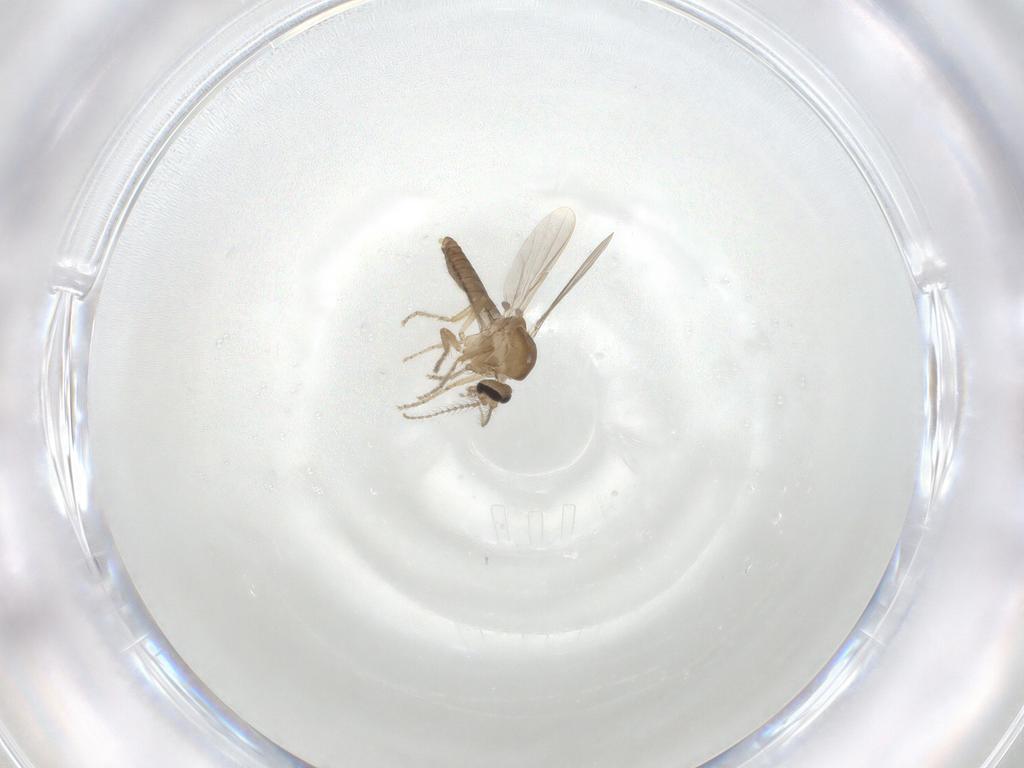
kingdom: Animalia
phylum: Arthropoda
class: Insecta
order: Diptera
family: Ceratopogonidae
